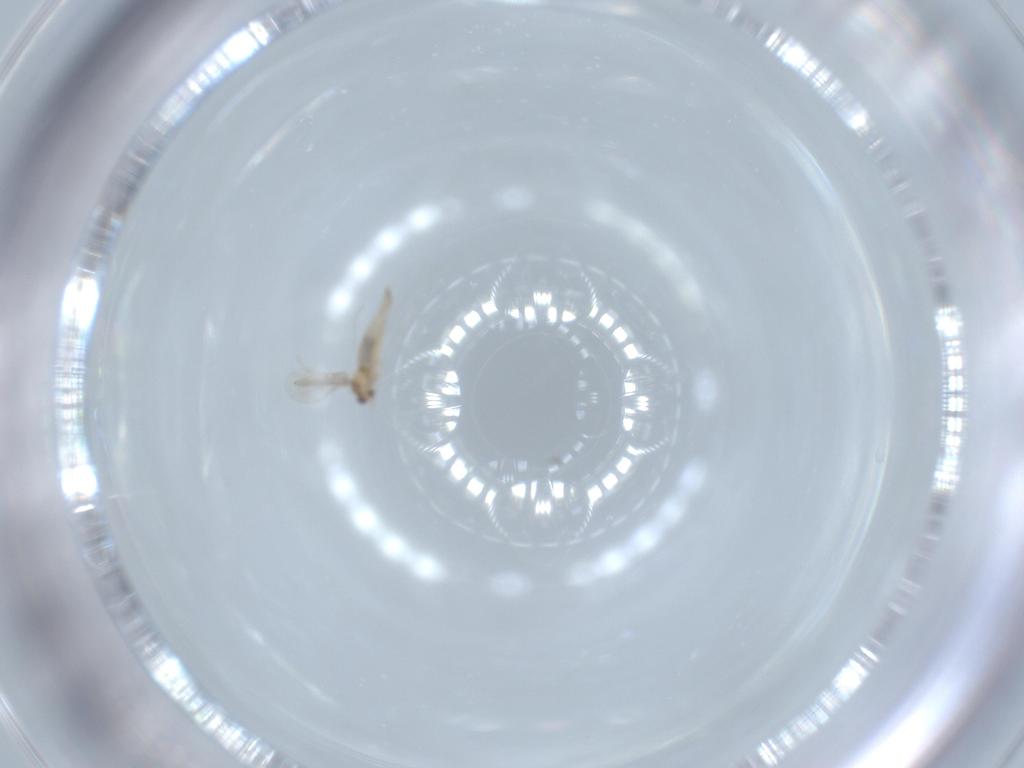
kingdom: Animalia
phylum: Arthropoda
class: Insecta
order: Diptera
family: Cecidomyiidae
